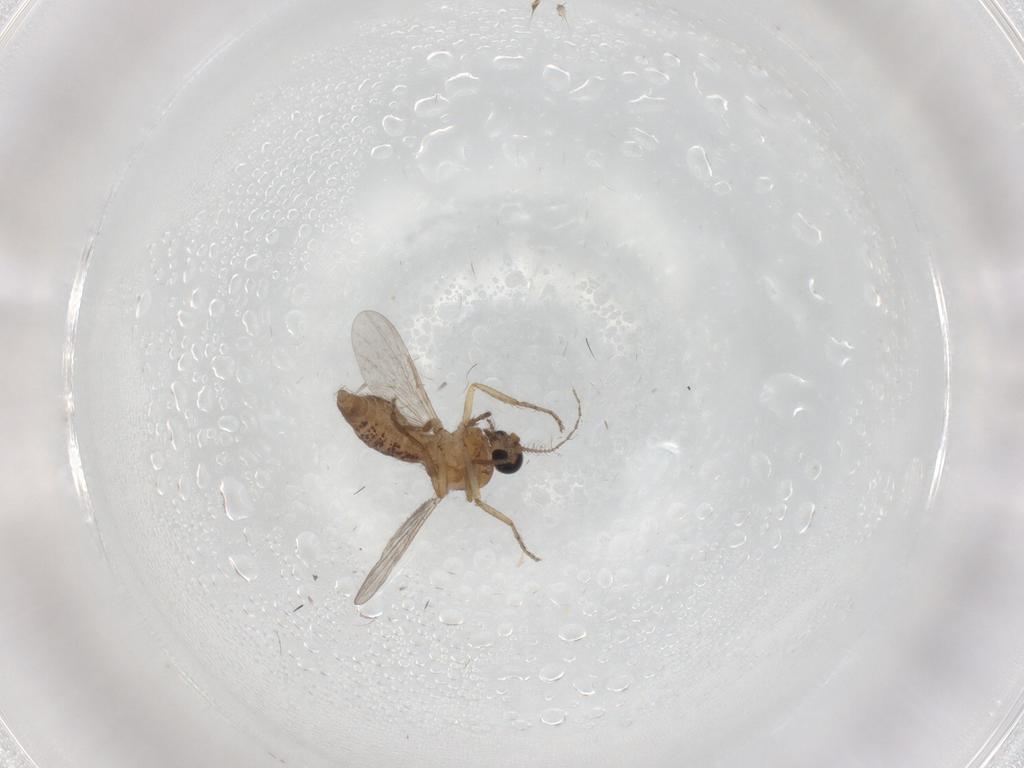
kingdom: Animalia
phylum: Arthropoda
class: Insecta
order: Diptera
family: Ceratopogonidae
